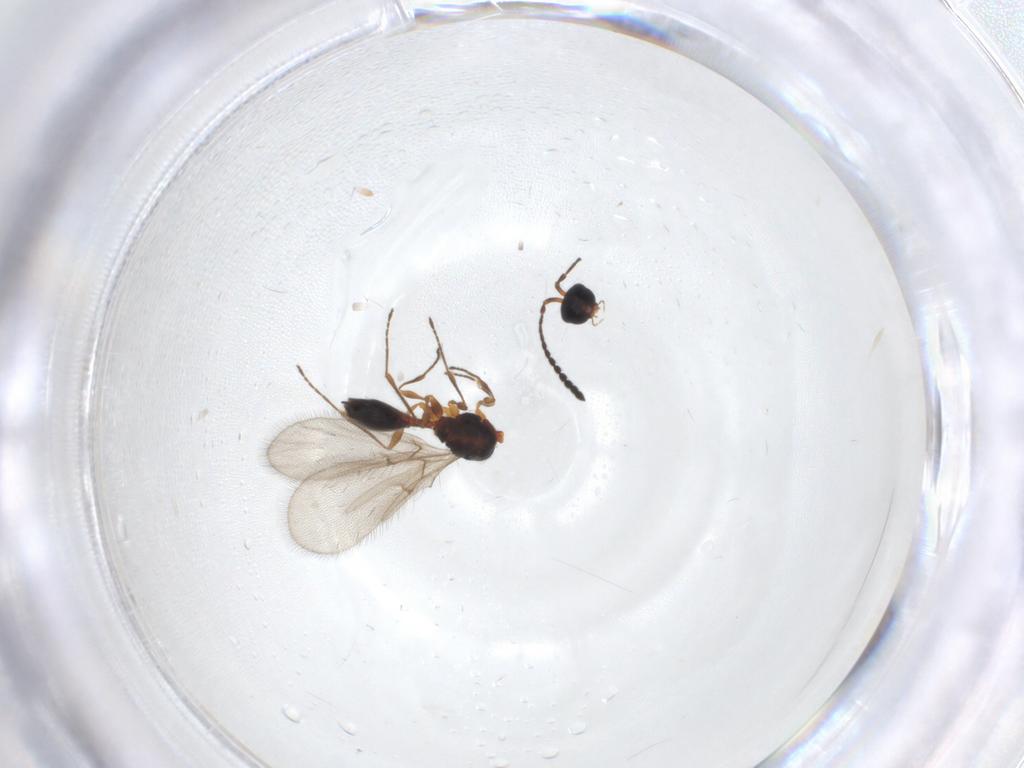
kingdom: Animalia
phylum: Arthropoda
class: Insecta
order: Hymenoptera
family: Diapriidae
